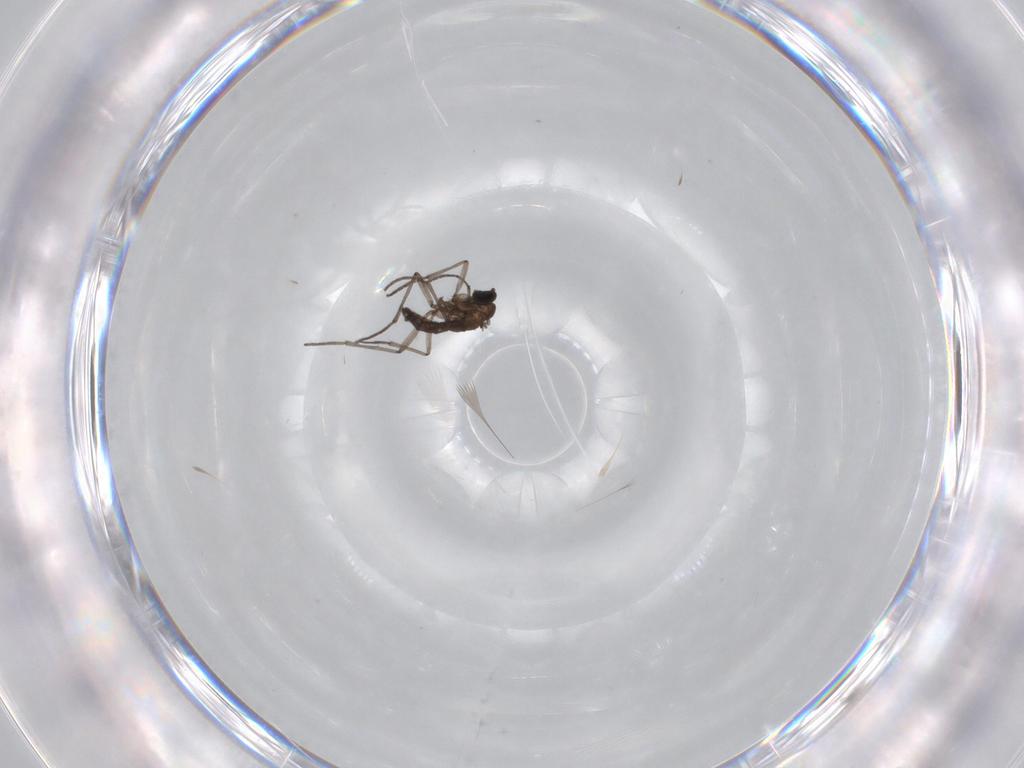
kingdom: Animalia
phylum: Arthropoda
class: Insecta
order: Diptera
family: Sciaridae
